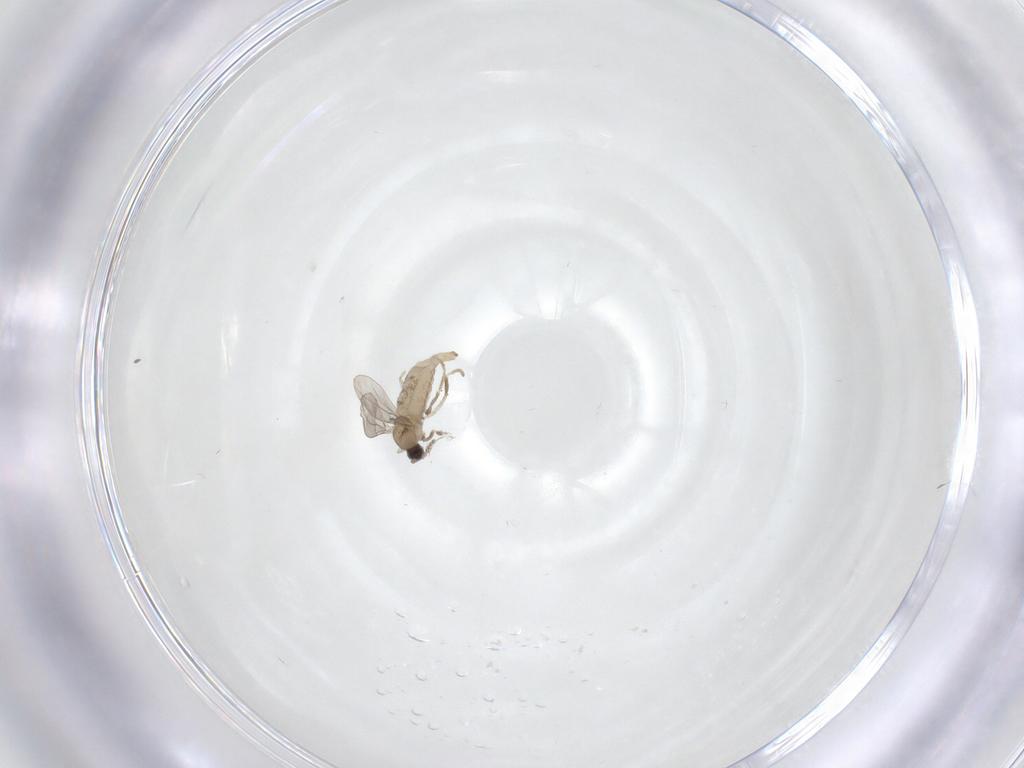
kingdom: Animalia
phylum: Arthropoda
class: Insecta
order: Diptera
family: Cecidomyiidae
